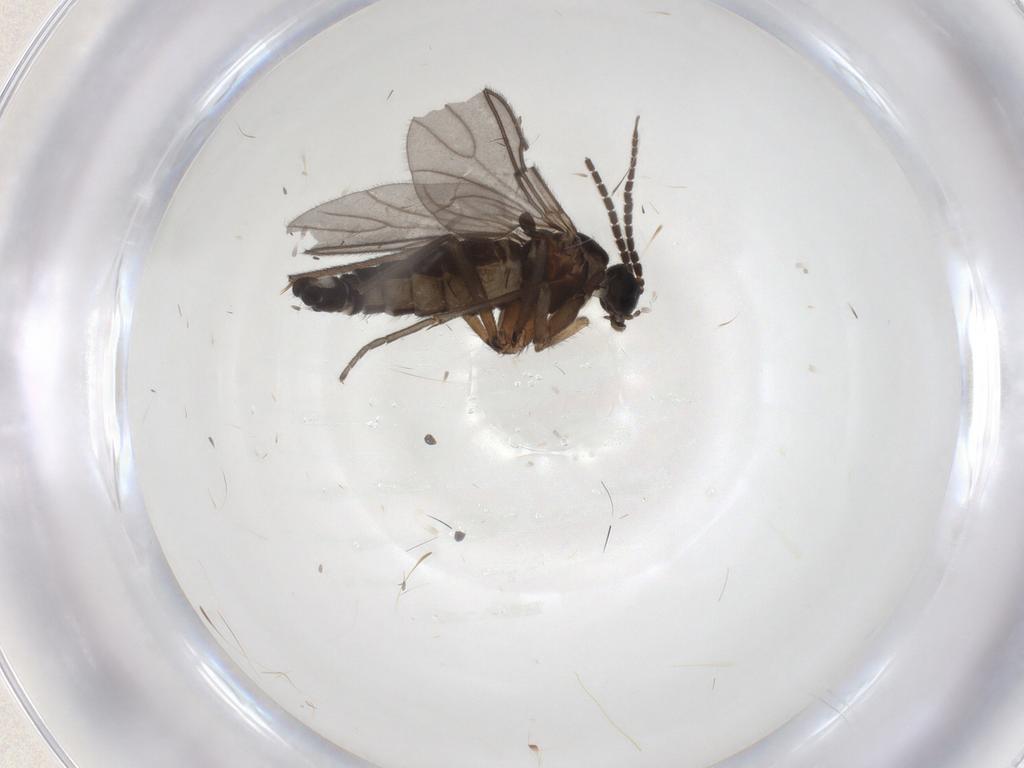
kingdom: Animalia
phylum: Arthropoda
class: Insecta
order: Diptera
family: Sciaridae
